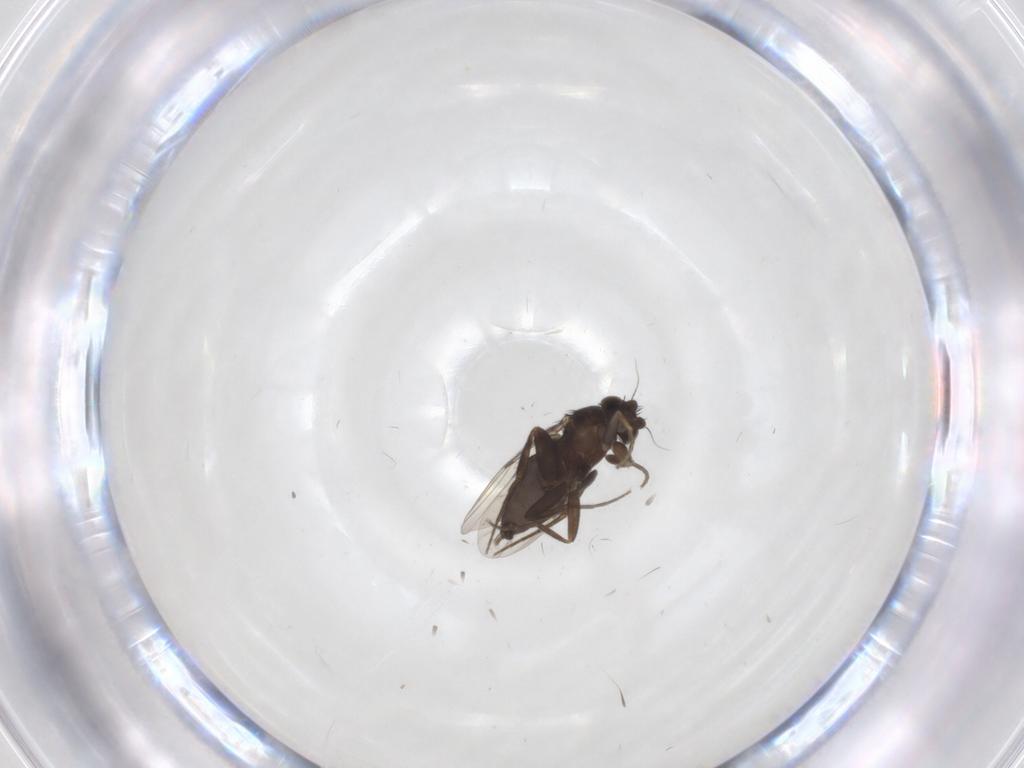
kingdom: Animalia
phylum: Arthropoda
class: Insecta
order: Diptera
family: Phoridae
